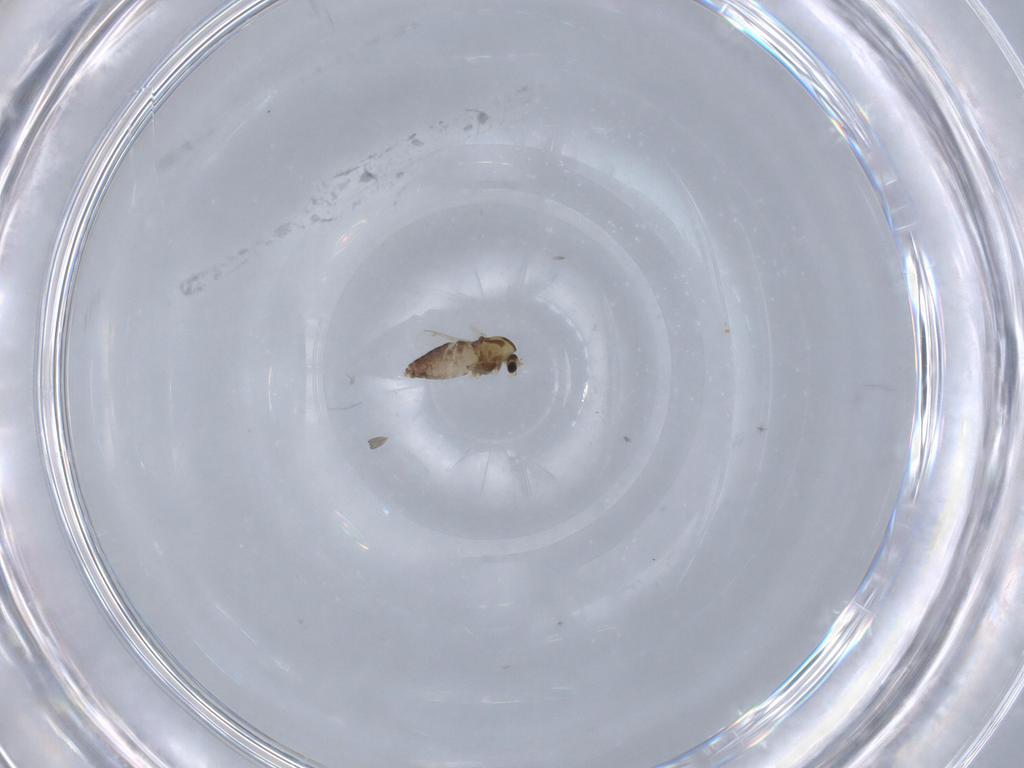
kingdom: Animalia
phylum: Arthropoda
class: Insecta
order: Diptera
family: Chironomidae
